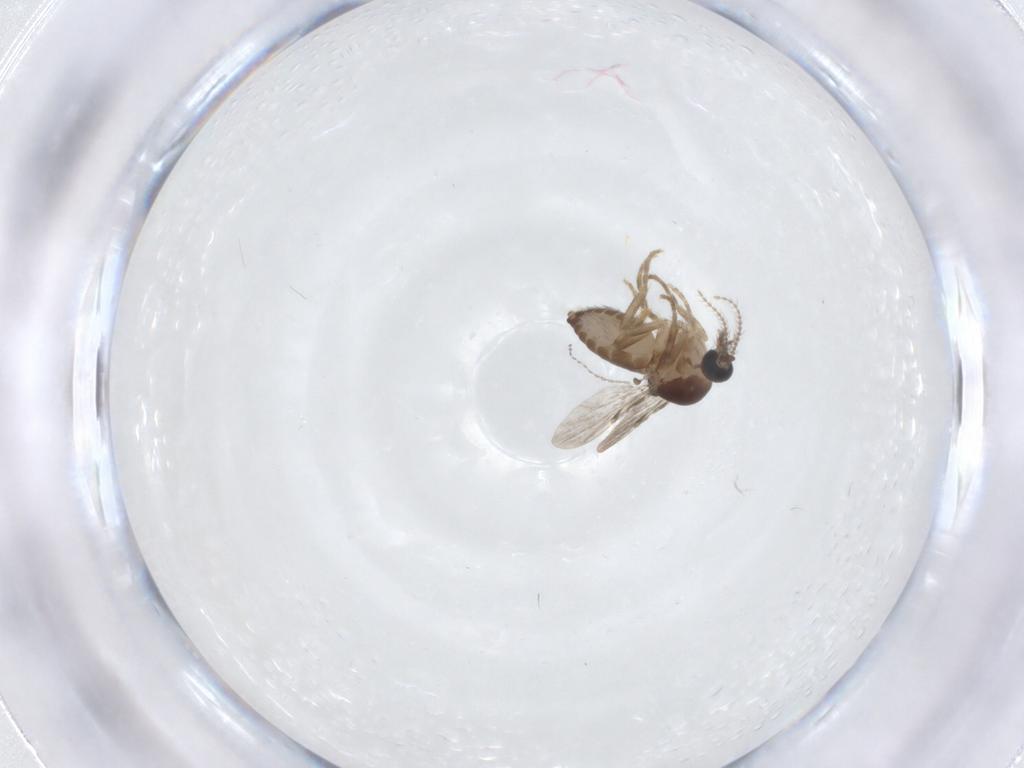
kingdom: Animalia
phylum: Arthropoda
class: Insecta
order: Diptera
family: Ceratopogonidae
